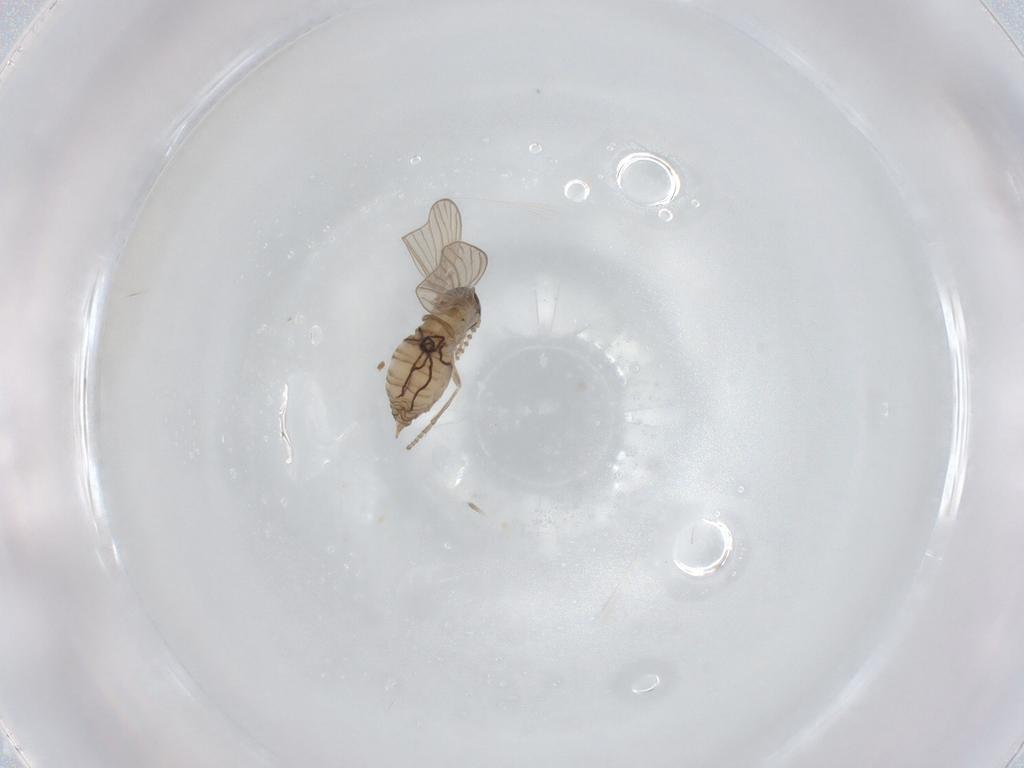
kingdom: Animalia
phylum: Arthropoda
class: Insecta
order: Diptera
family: Psychodidae
